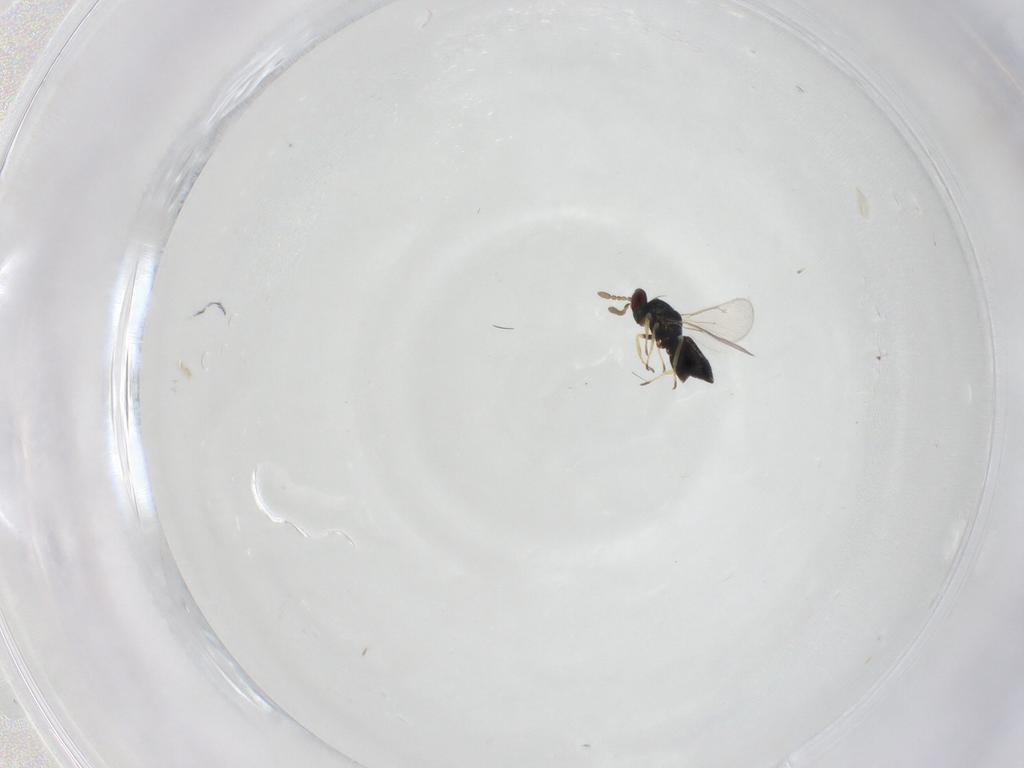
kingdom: Animalia
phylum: Arthropoda
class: Insecta
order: Hymenoptera
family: Eulophidae
